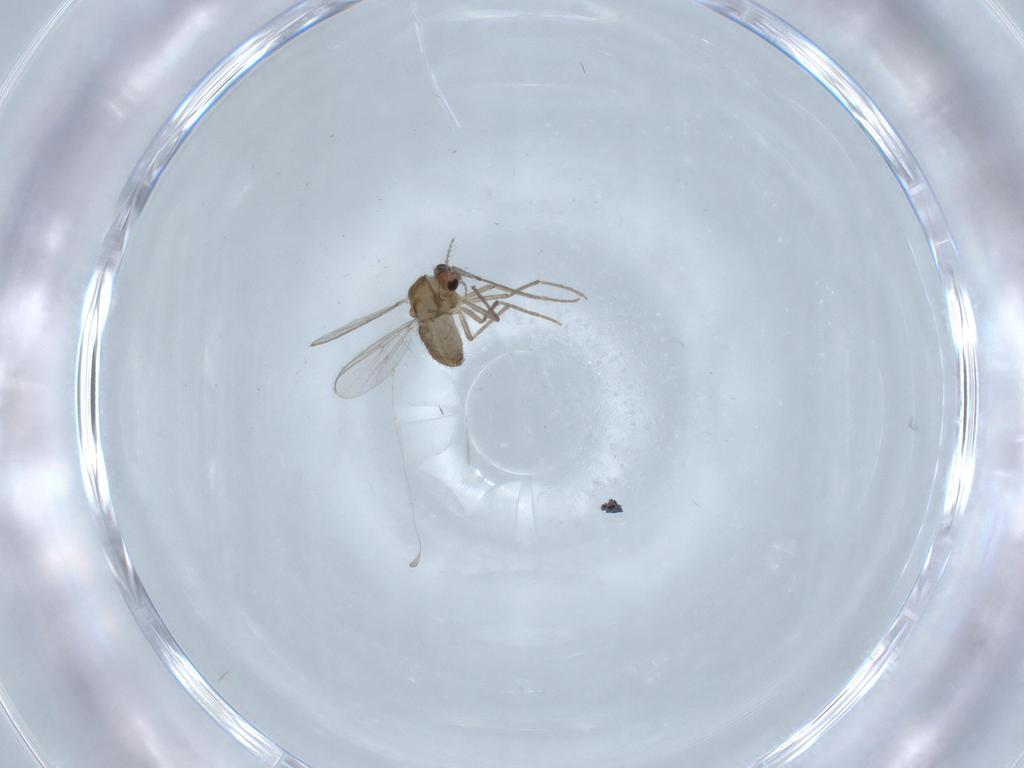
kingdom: Animalia
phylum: Arthropoda
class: Insecta
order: Diptera
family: Chironomidae
